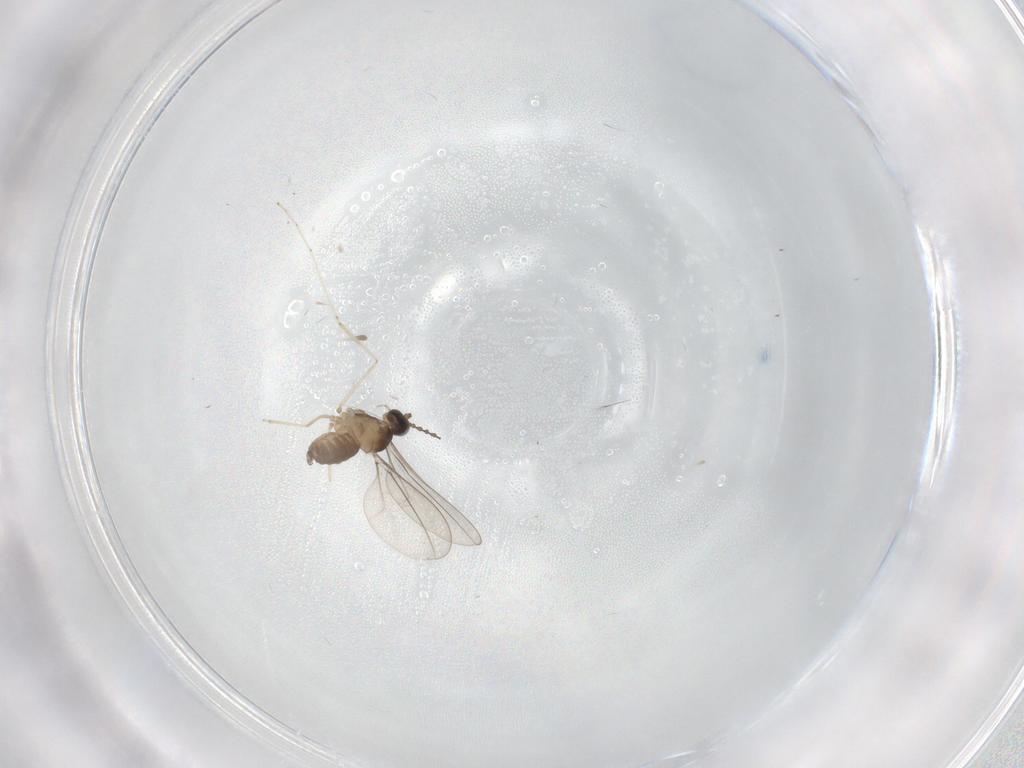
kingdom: Animalia
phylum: Arthropoda
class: Insecta
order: Diptera
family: Cecidomyiidae
